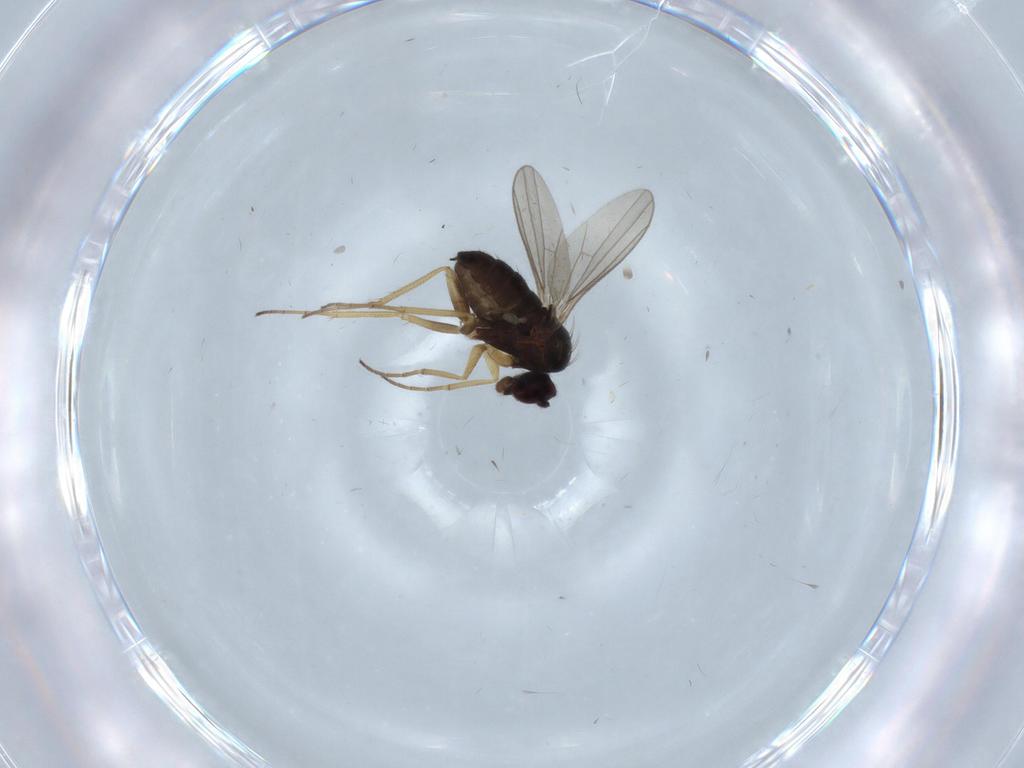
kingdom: Animalia
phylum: Arthropoda
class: Insecta
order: Diptera
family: Dolichopodidae
